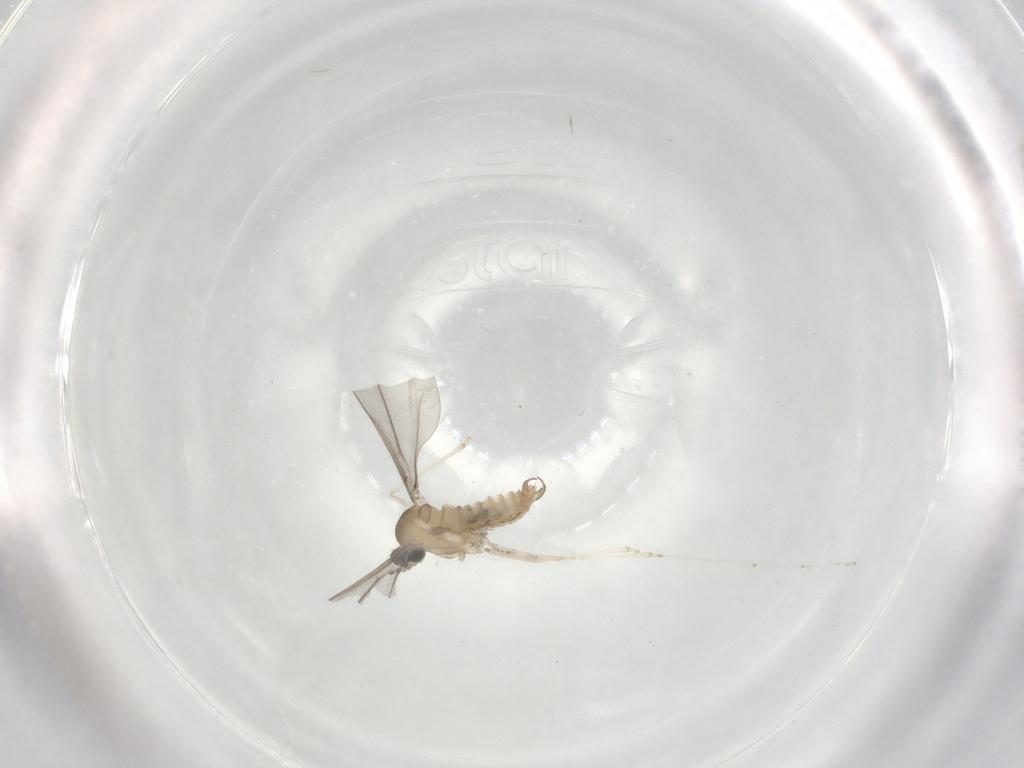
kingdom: Animalia
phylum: Arthropoda
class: Insecta
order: Diptera
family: Cecidomyiidae
